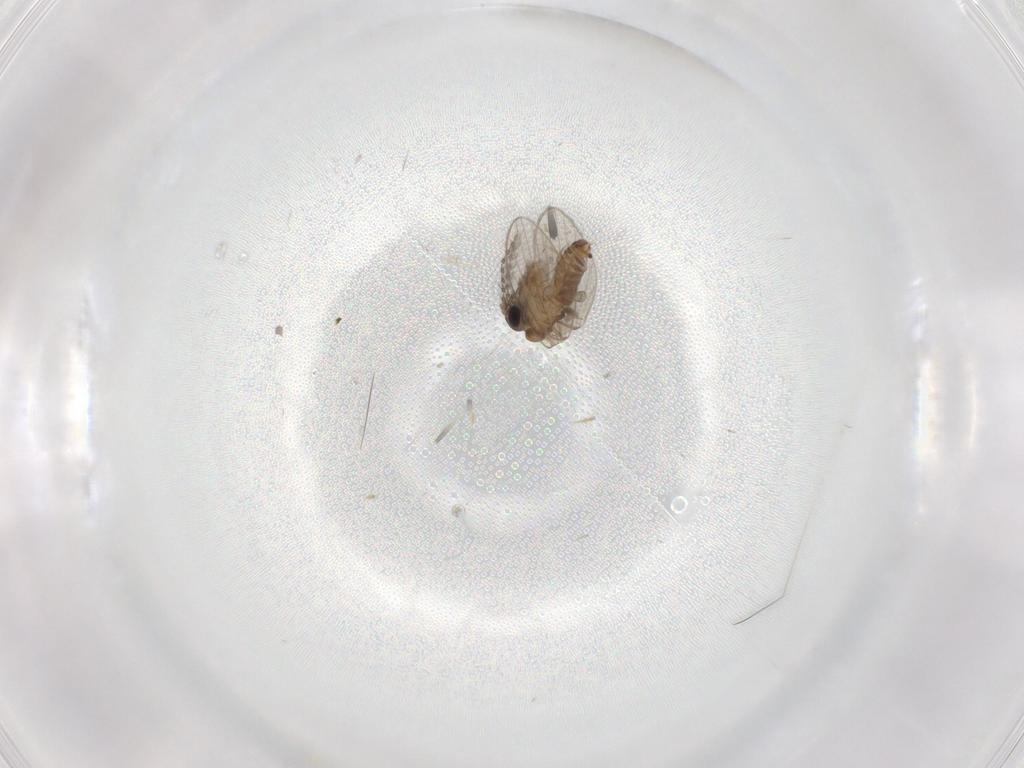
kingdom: Animalia
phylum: Arthropoda
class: Insecta
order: Diptera
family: Psychodidae
